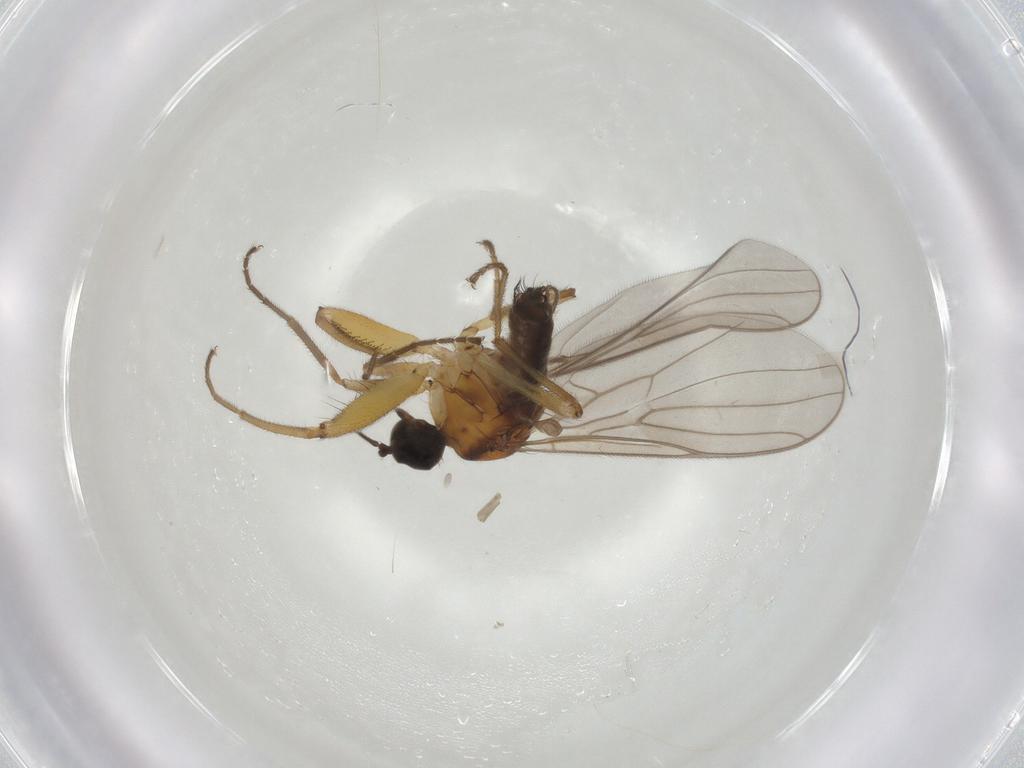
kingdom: Animalia
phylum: Arthropoda
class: Insecta
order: Diptera
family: Hybotidae
